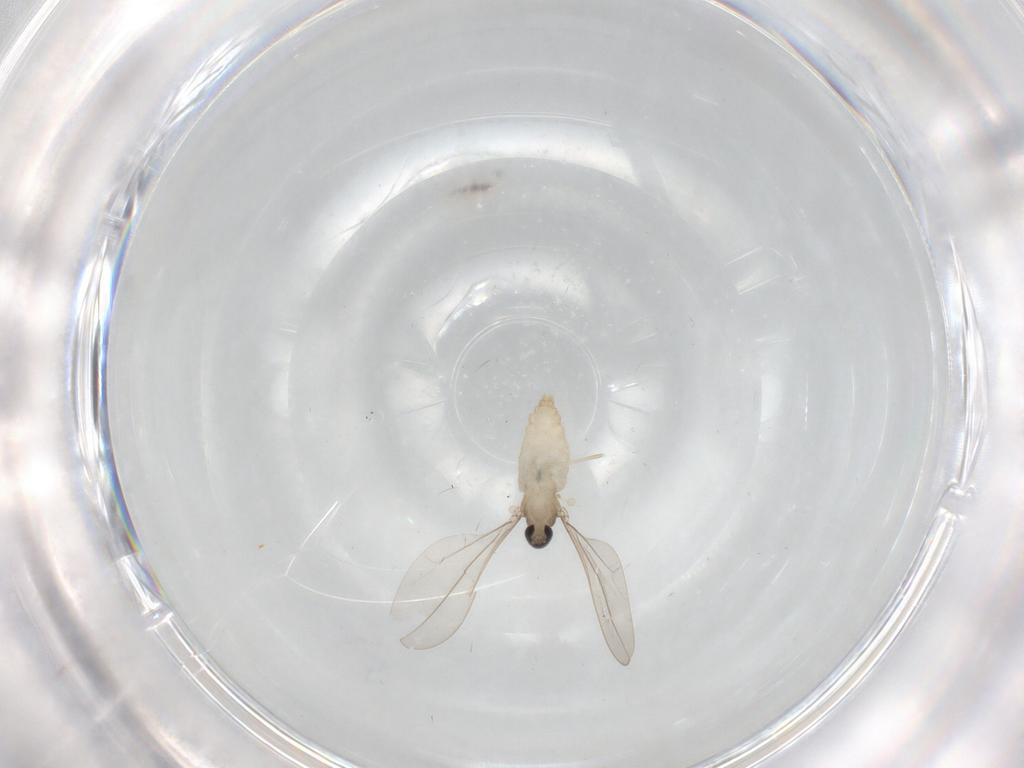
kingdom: Animalia
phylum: Arthropoda
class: Insecta
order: Diptera
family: Cecidomyiidae
